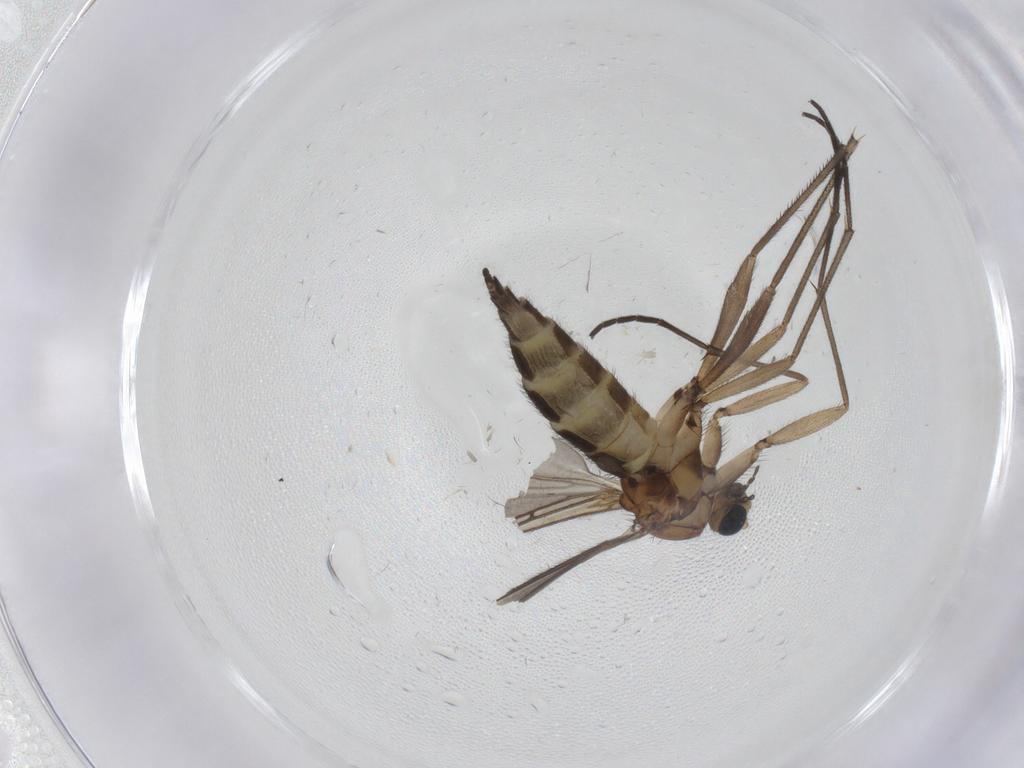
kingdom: Animalia
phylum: Arthropoda
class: Insecta
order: Diptera
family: Sciaridae
